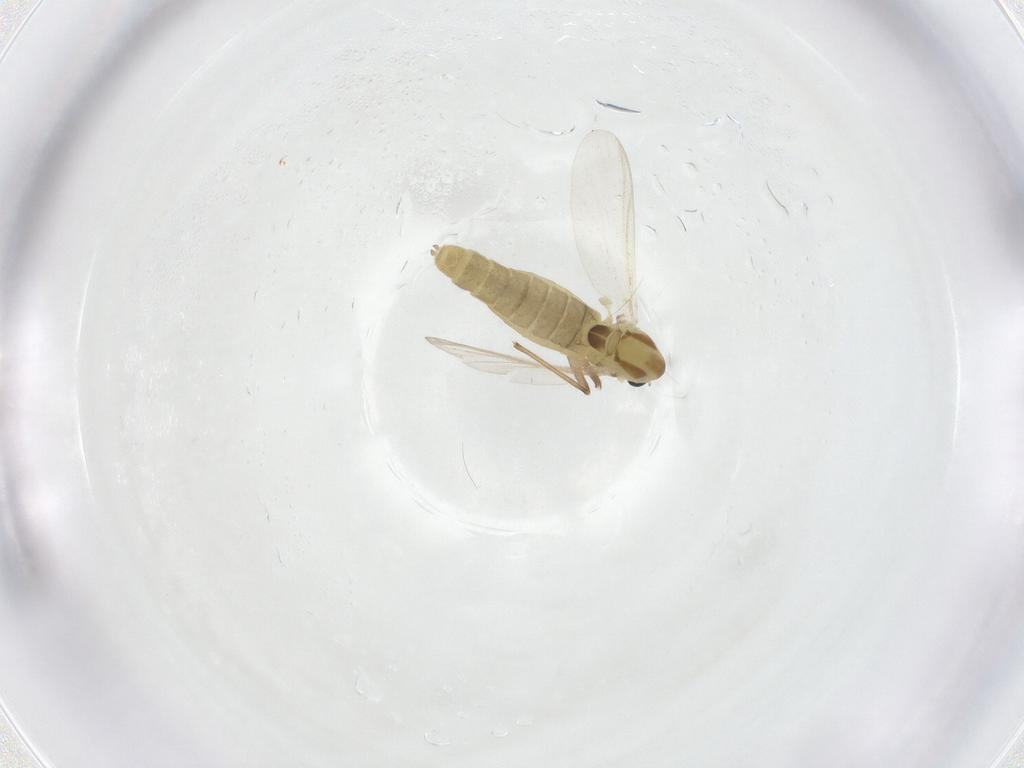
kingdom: Animalia
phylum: Arthropoda
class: Insecta
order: Diptera
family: Chironomidae
